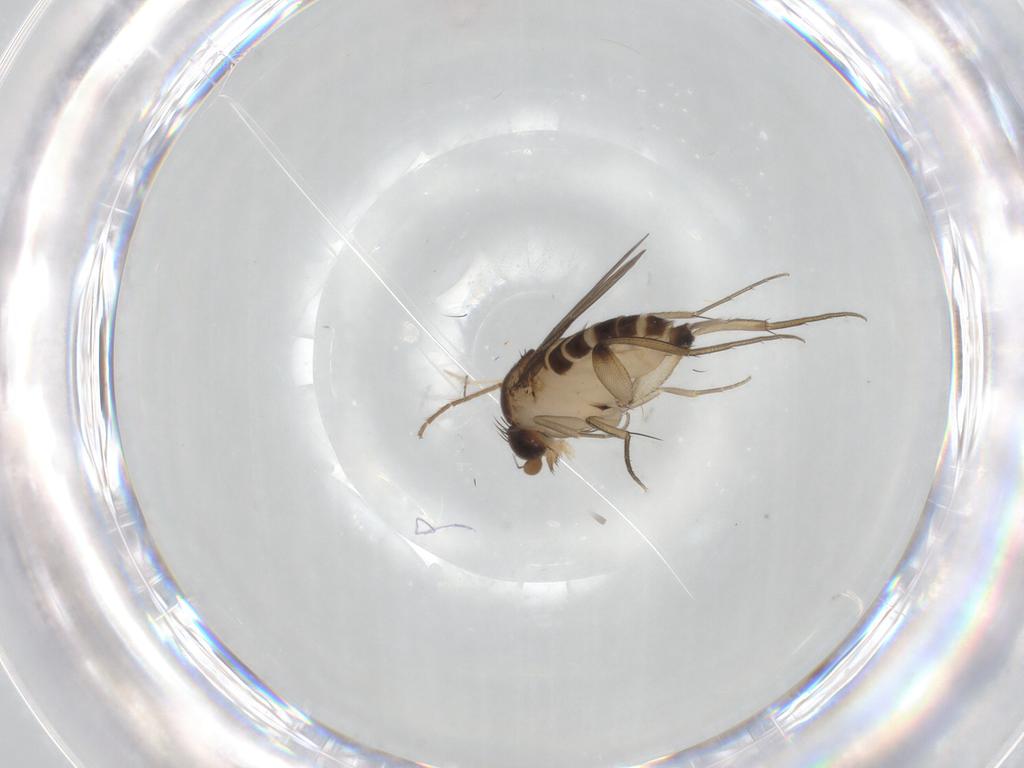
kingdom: Animalia
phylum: Arthropoda
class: Insecta
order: Diptera
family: Phoridae
